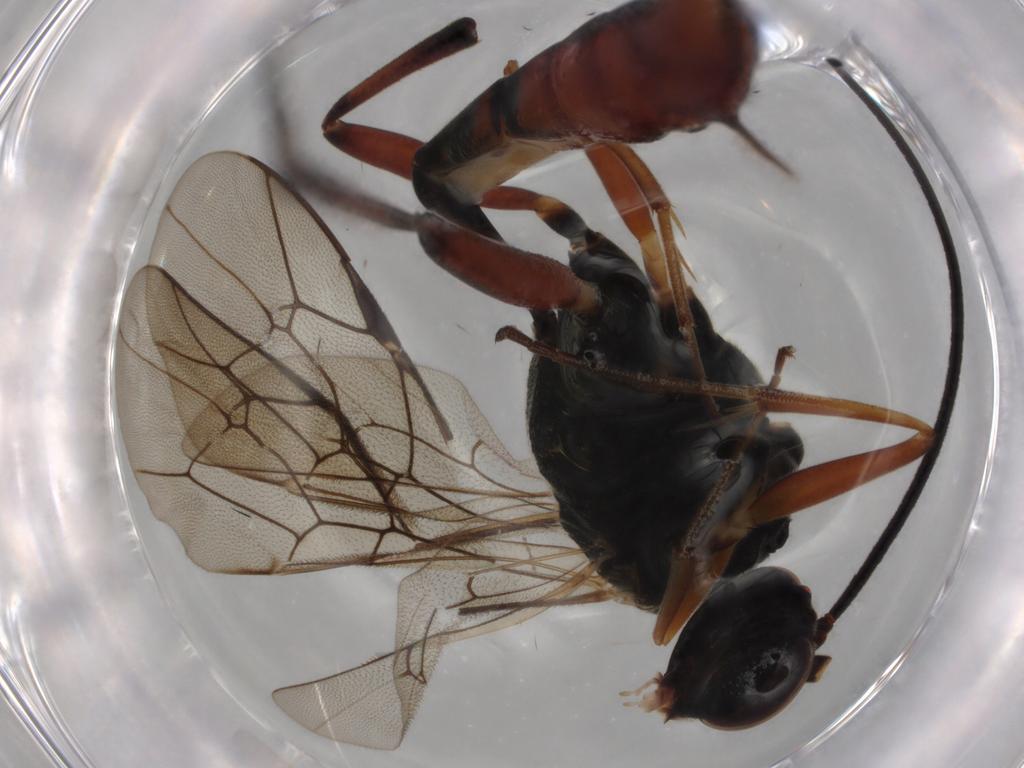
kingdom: Animalia
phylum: Arthropoda
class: Insecta
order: Hymenoptera
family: Ichneumonidae
